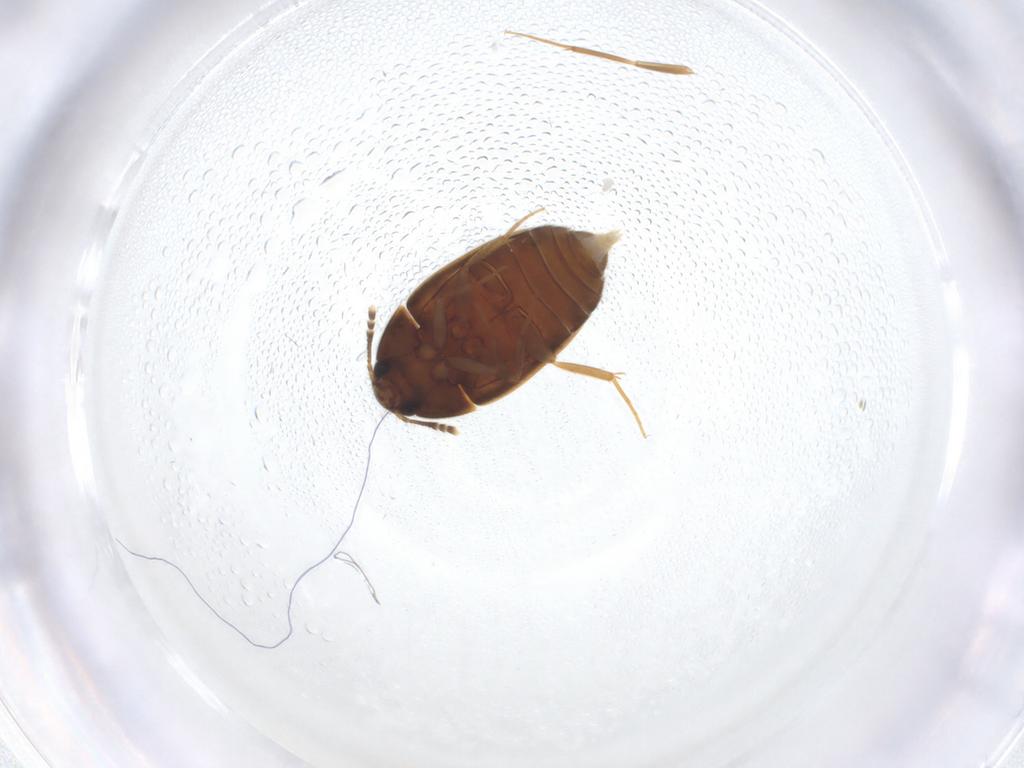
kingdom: Animalia
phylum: Arthropoda
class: Insecta
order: Coleoptera
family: Mycetophagidae
